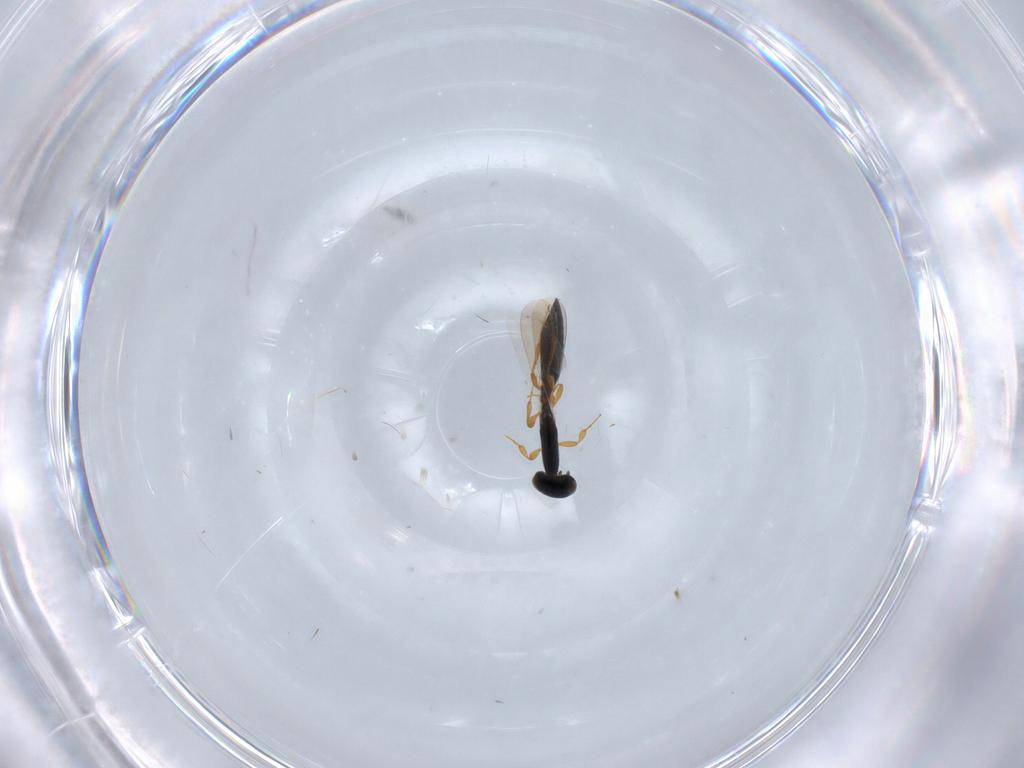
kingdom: Animalia
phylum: Arthropoda
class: Insecta
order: Hymenoptera
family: Platygastridae
